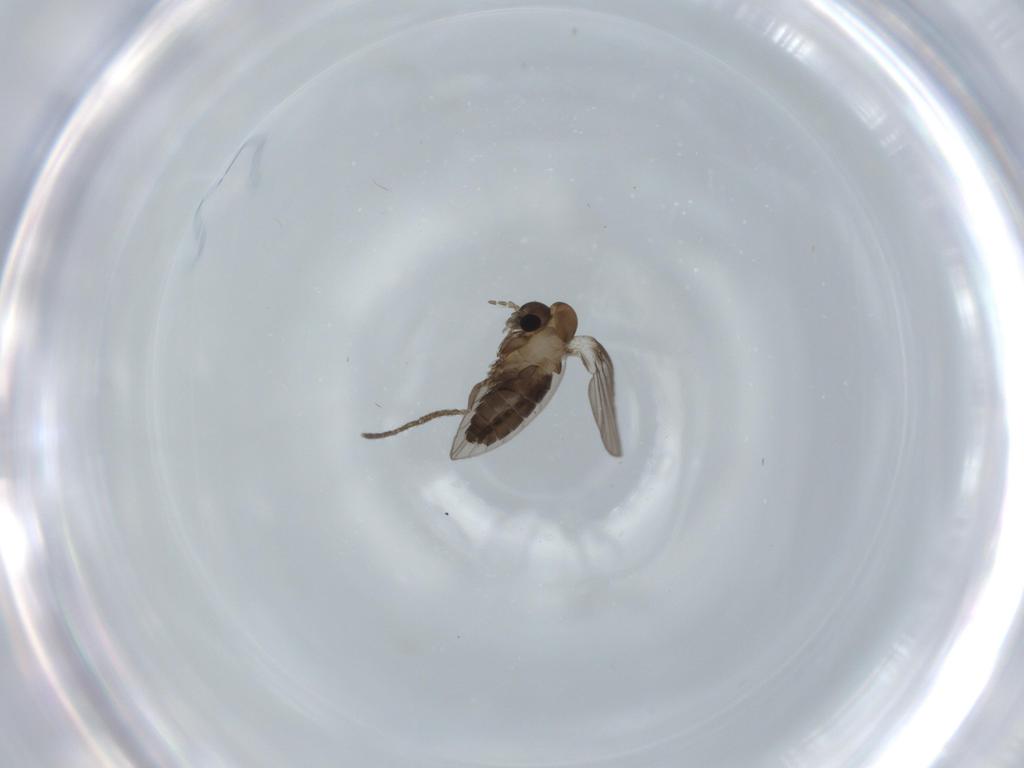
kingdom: Animalia
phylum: Arthropoda
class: Insecta
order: Diptera
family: Psychodidae
